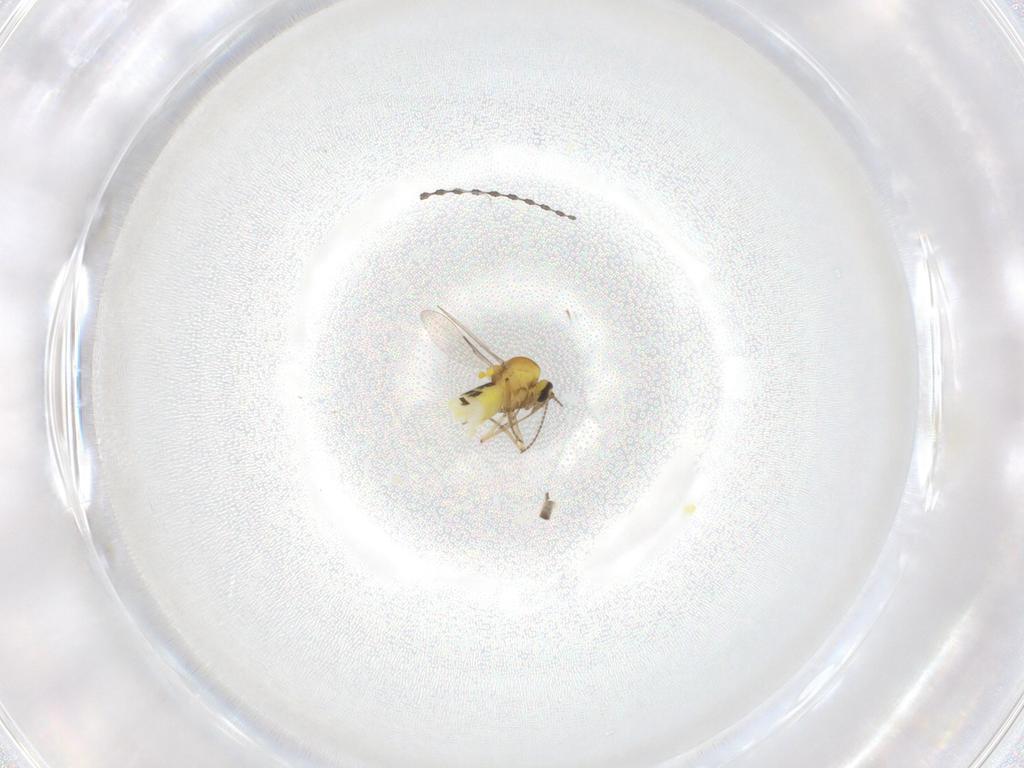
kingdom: Animalia
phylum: Arthropoda
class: Insecta
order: Diptera
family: Cecidomyiidae
